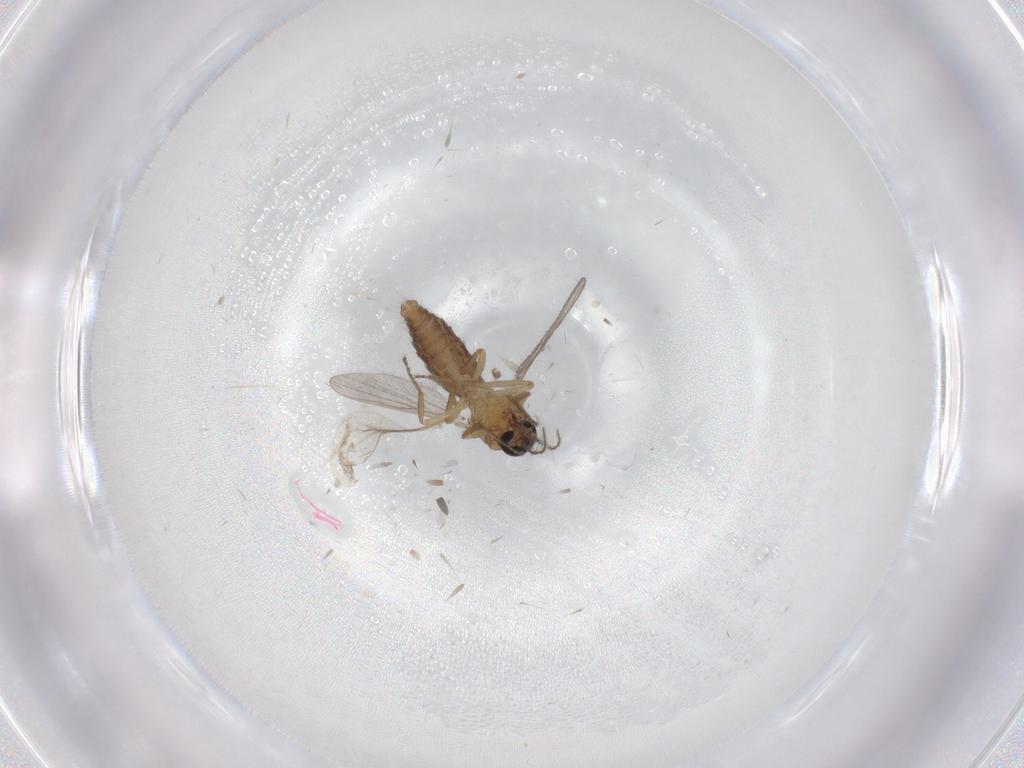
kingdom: Animalia
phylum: Arthropoda
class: Insecta
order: Diptera
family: Ceratopogonidae
